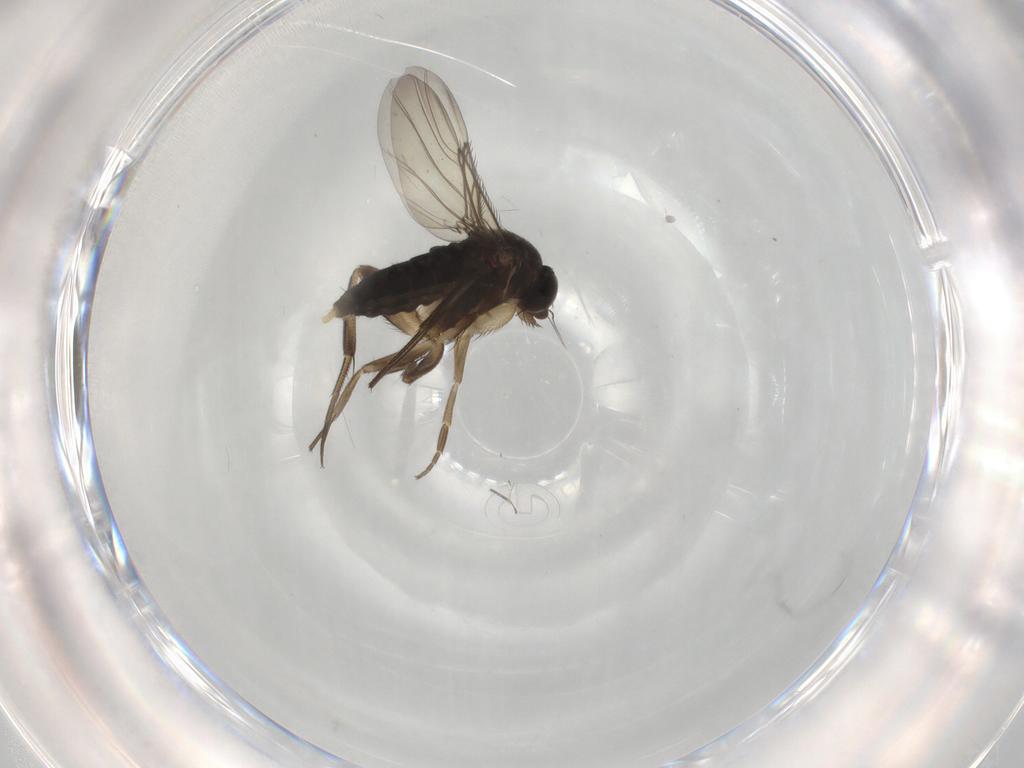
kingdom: Animalia
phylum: Arthropoda
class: Insecta
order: Diptera
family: Phoridae
